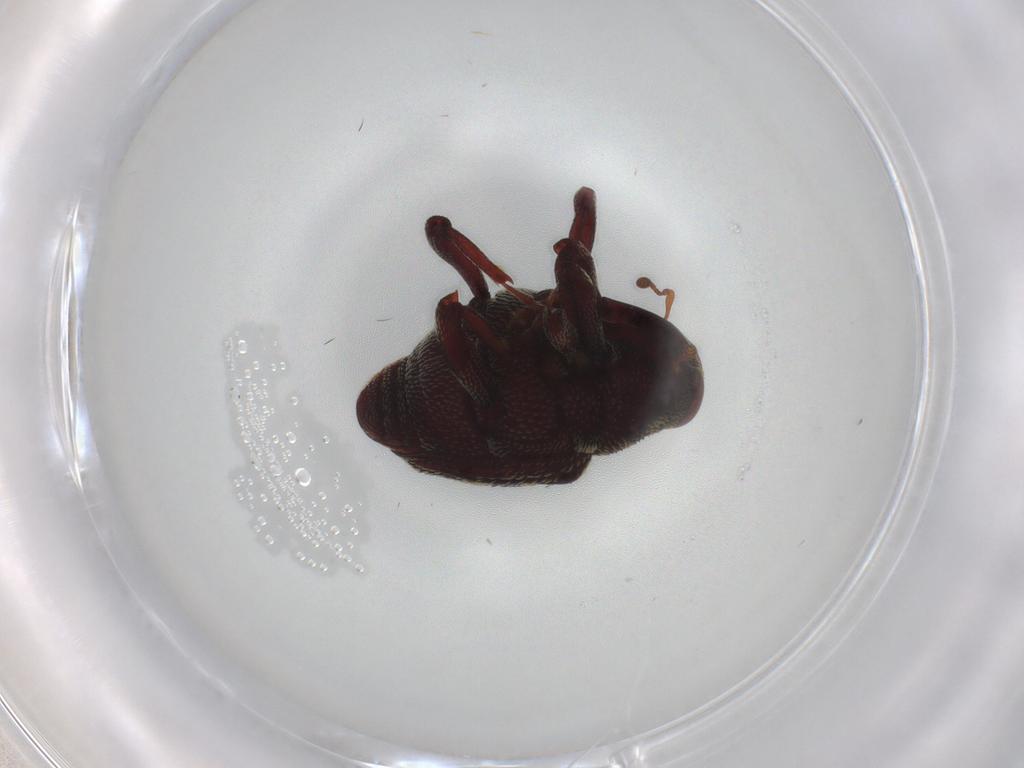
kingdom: Animalia
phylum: Arthropoda
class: Insecta
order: Coleoptera
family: Curculionidae
